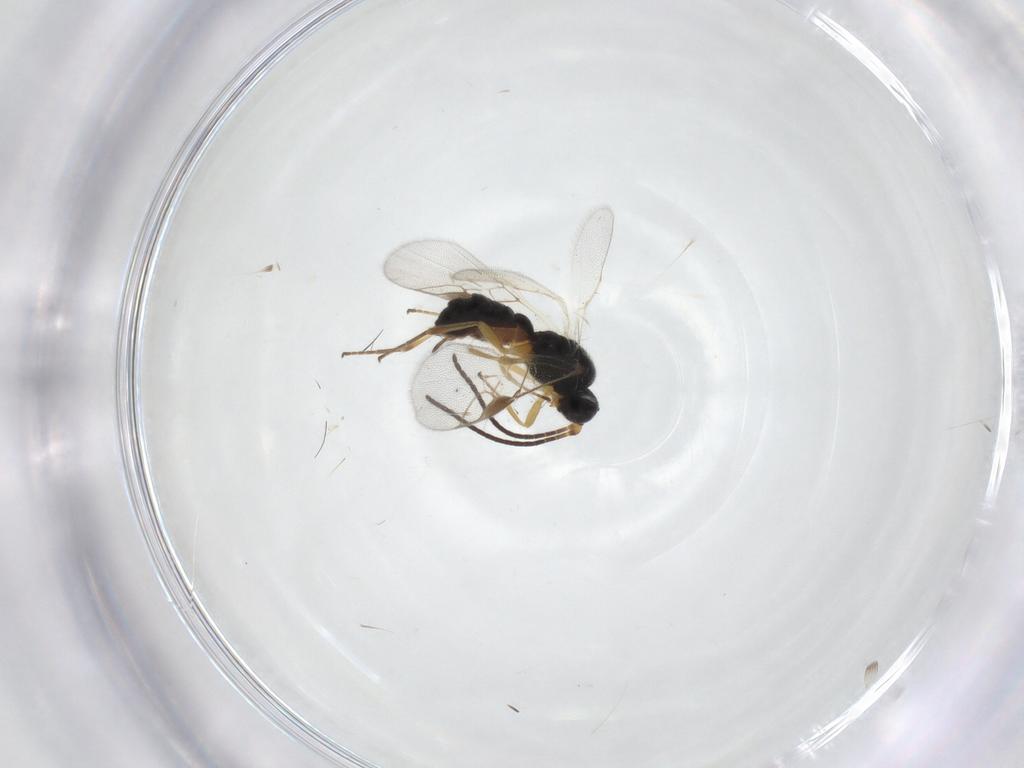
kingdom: Animalia
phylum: Arthropoda
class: Insecta
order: Hymenoptera
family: Braconidae
